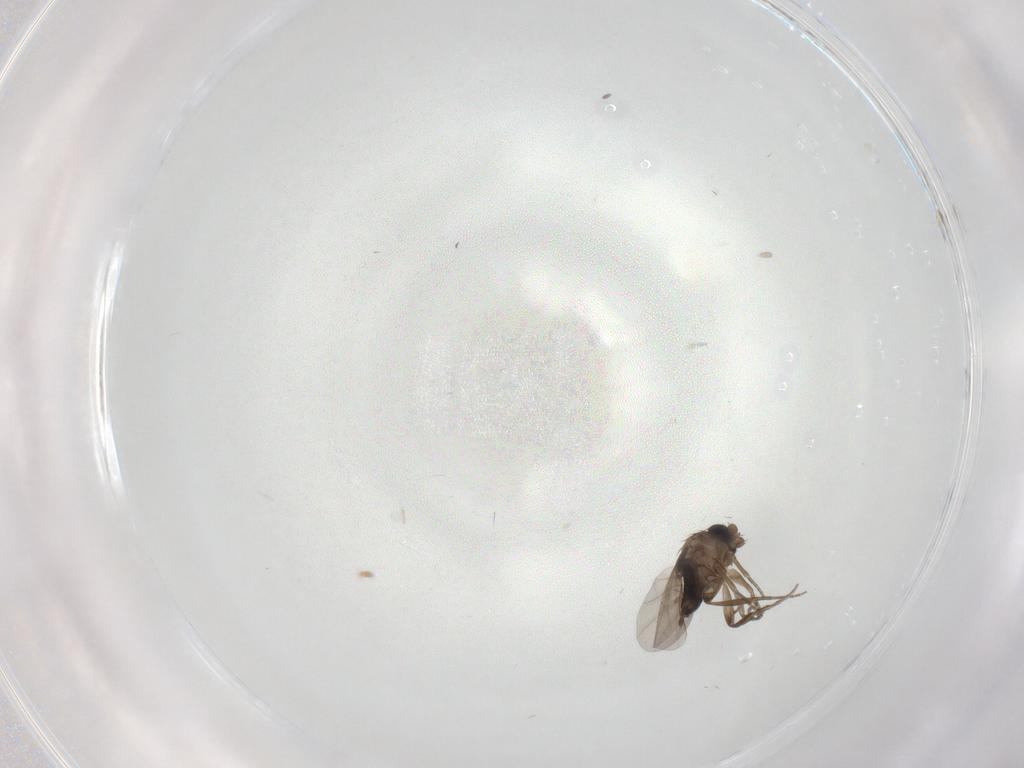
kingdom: Animalia
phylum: Arthropoda
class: Insecta
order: Diptera
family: Phoridae
